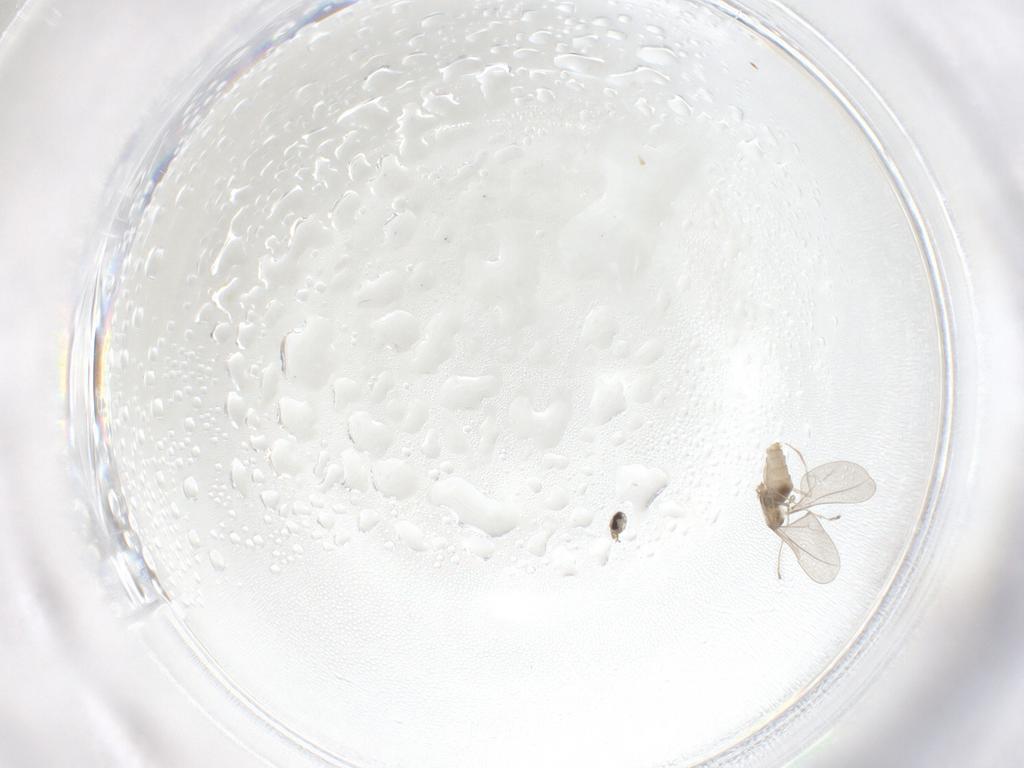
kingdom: Animalia
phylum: Arthropoda
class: Insecta
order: Diptera
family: Cecidomyiidae
